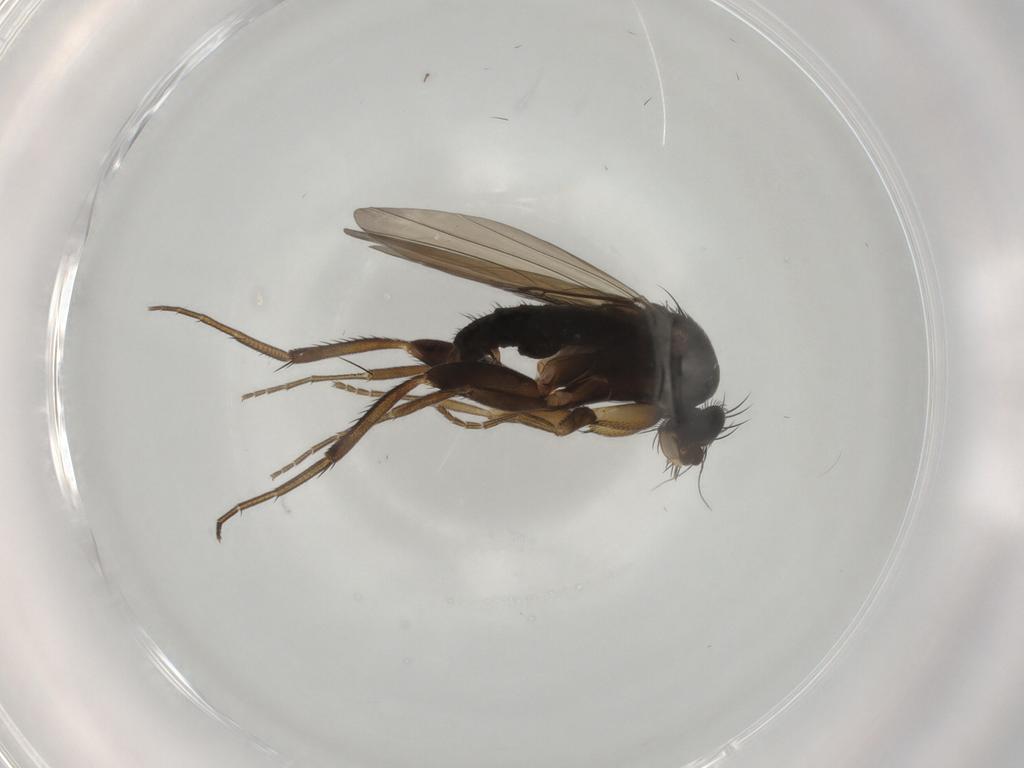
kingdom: Animalia
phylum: Arthropoda
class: Insecta
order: Diptera
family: Phoridae
